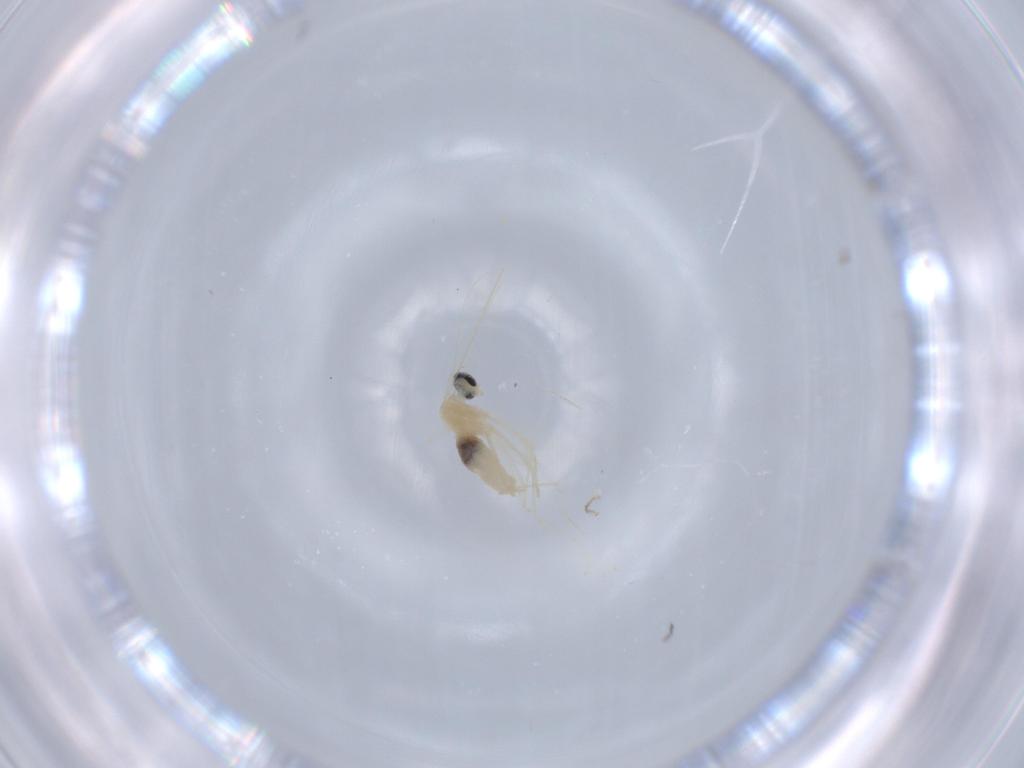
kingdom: Animalia
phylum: Arthropoda
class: Insecta
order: Diptera
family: Cecidomyiidae
